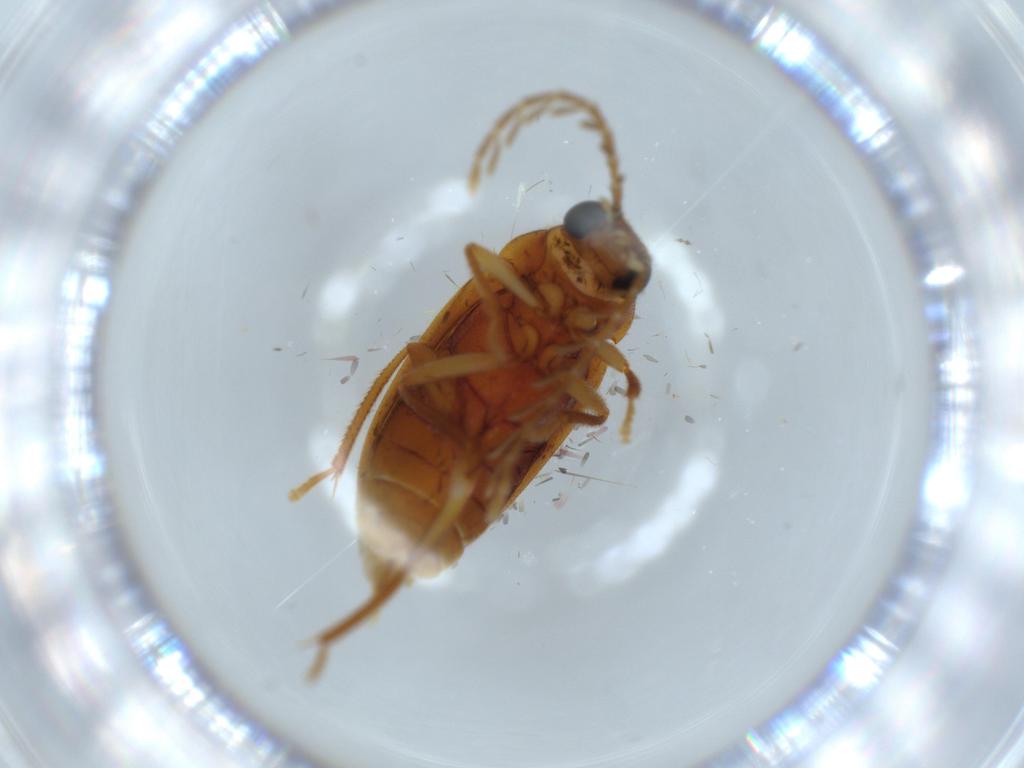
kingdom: Animalia
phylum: Arthropoda
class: Insecta
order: Coleoptera
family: Ptilodactylidae
